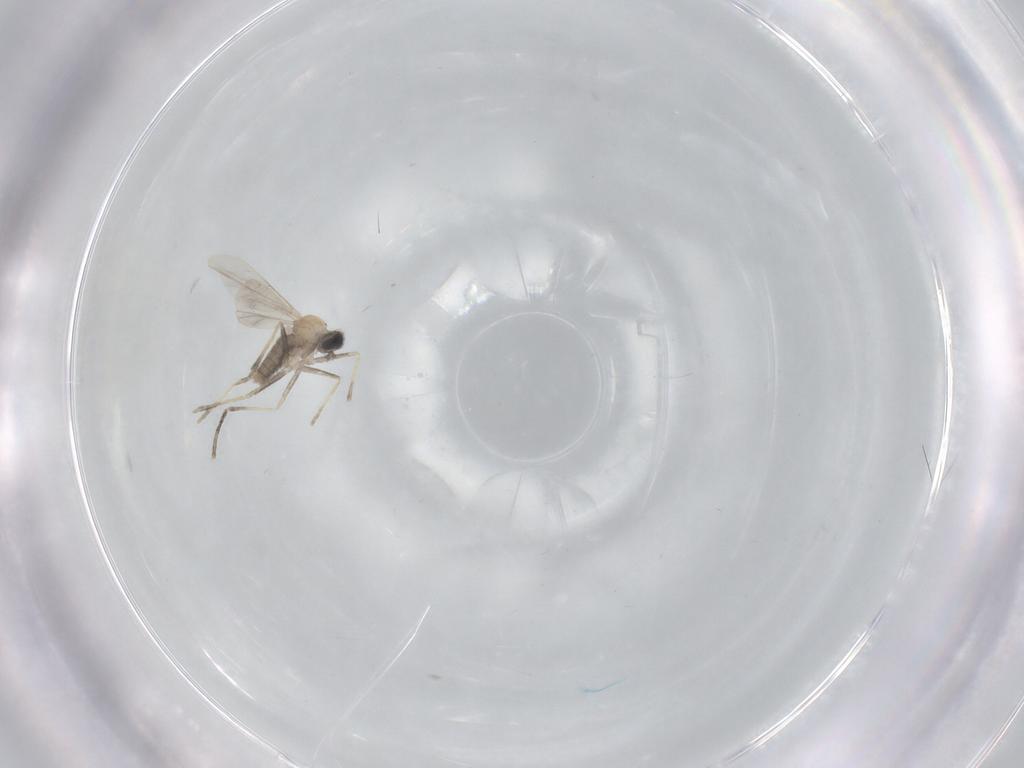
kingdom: Animalia
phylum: Arthropoda
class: Insecta
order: Diptera
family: Cecidomyiidae
